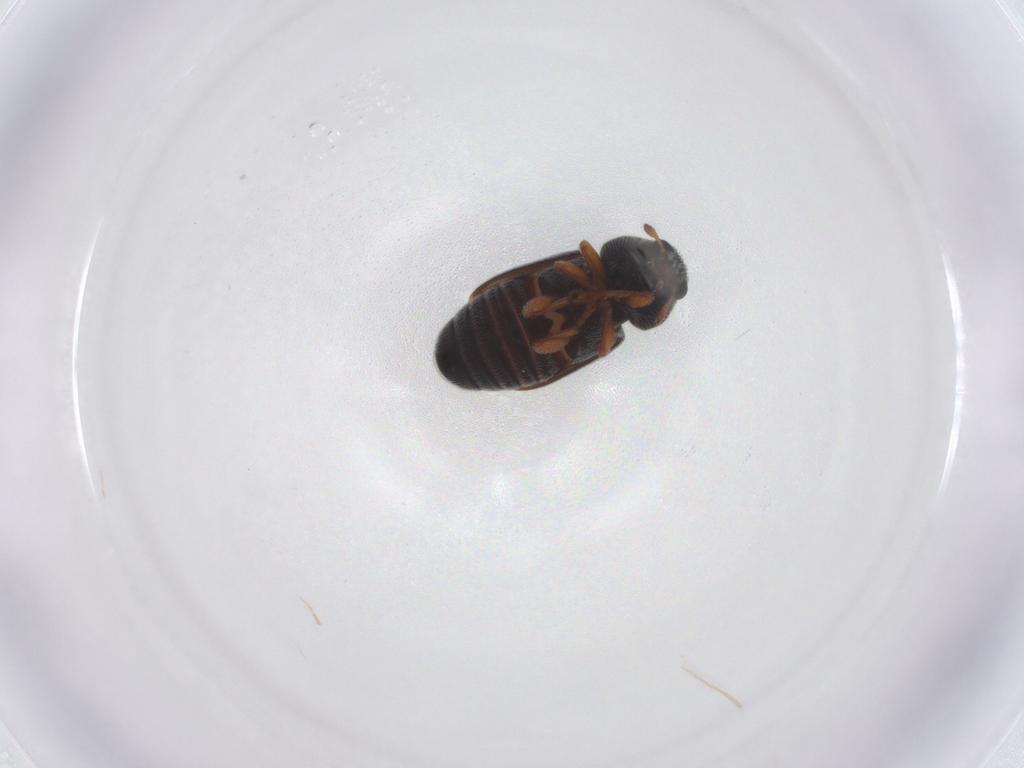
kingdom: Animalia
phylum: Arthropoda
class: Insecta
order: Coleoptera
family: Anthribidae
